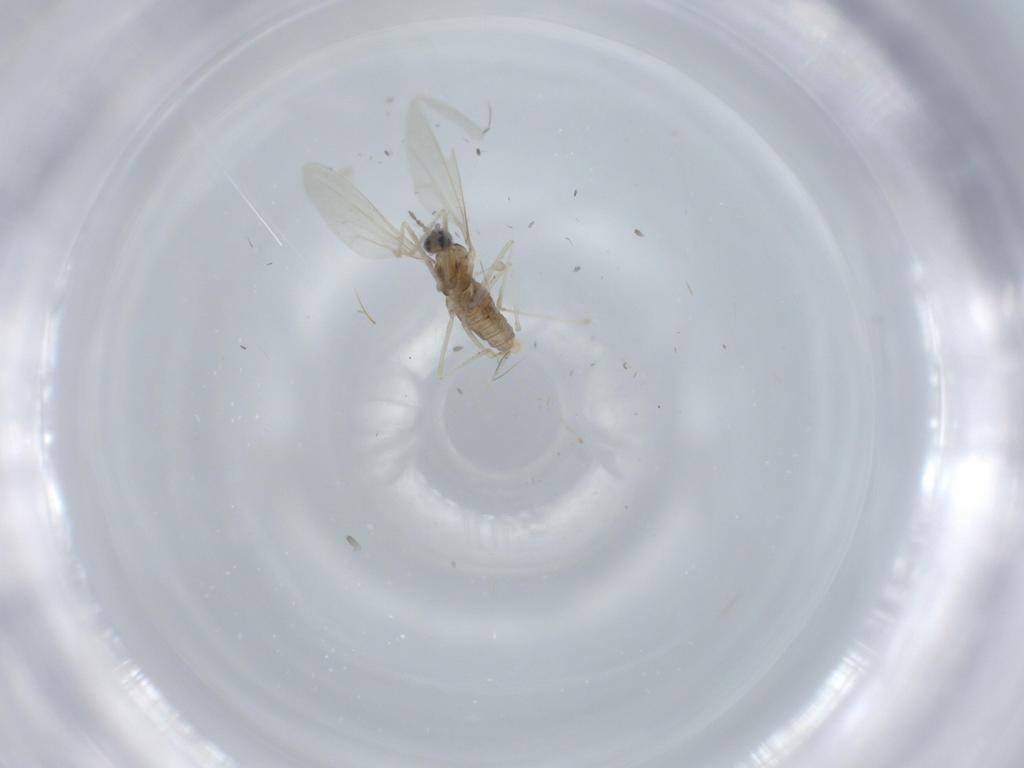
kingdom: Animalia
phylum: Arthropoda
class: Insecta
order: Diptera
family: Cecidomyiidae
